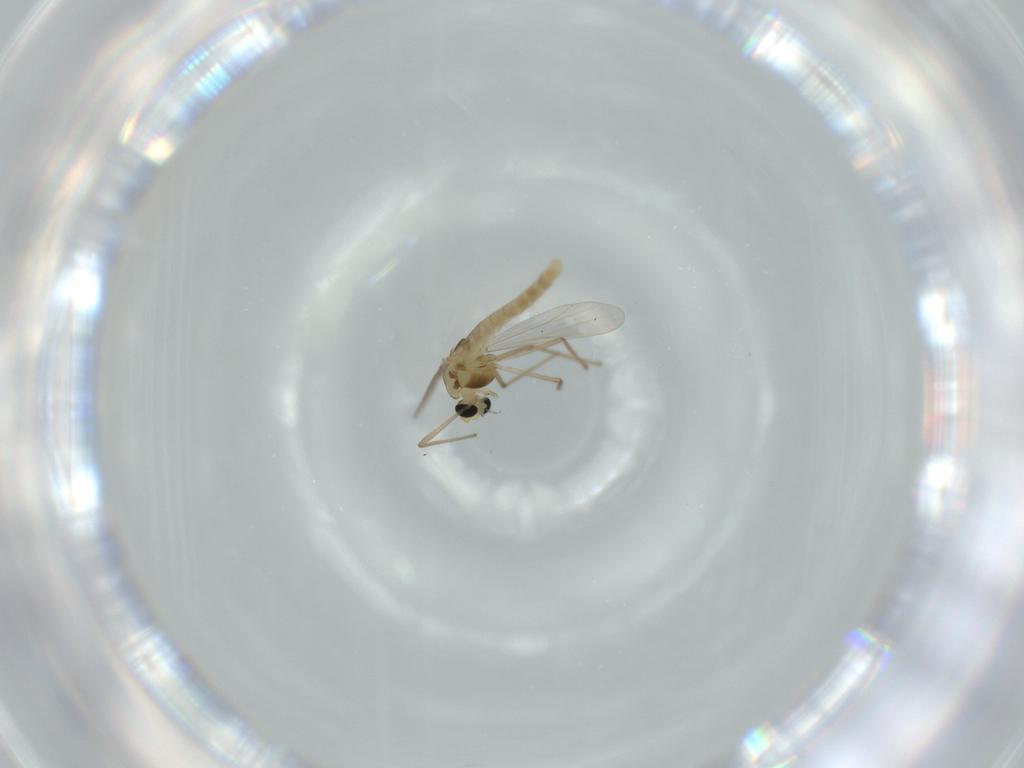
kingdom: Animalia
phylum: Arthropoda
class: Insecta
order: Diptera
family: Chironomidae
